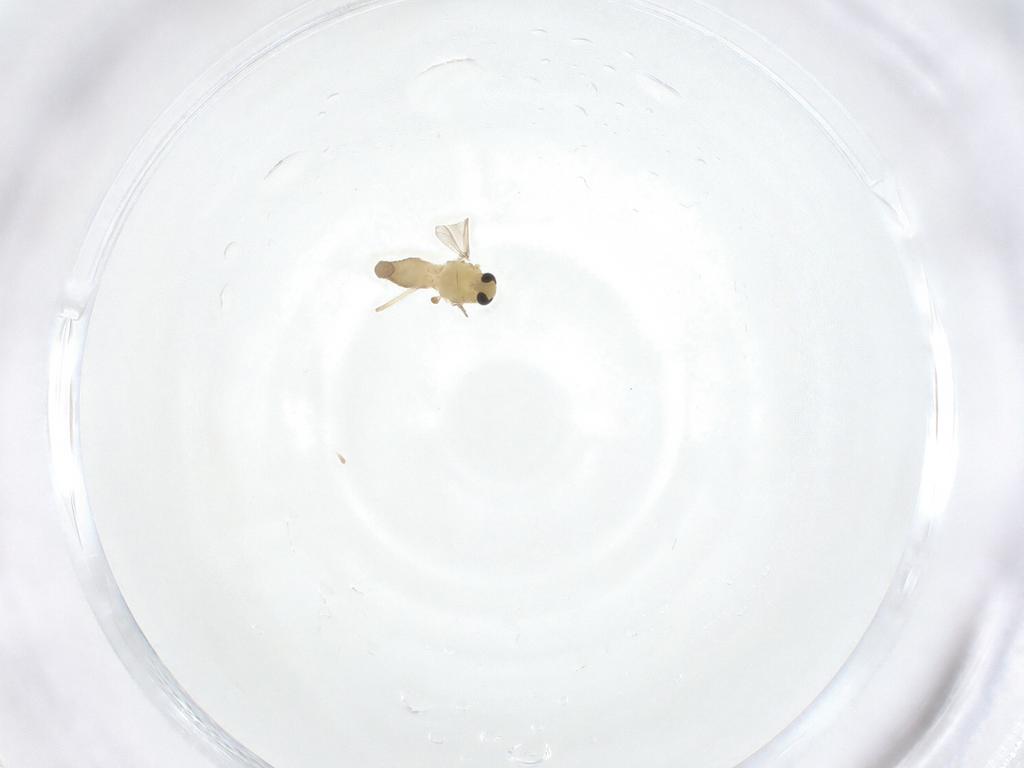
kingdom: Animalia
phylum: Arthropoda
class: Insecta
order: Diptera
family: Chironomidae
